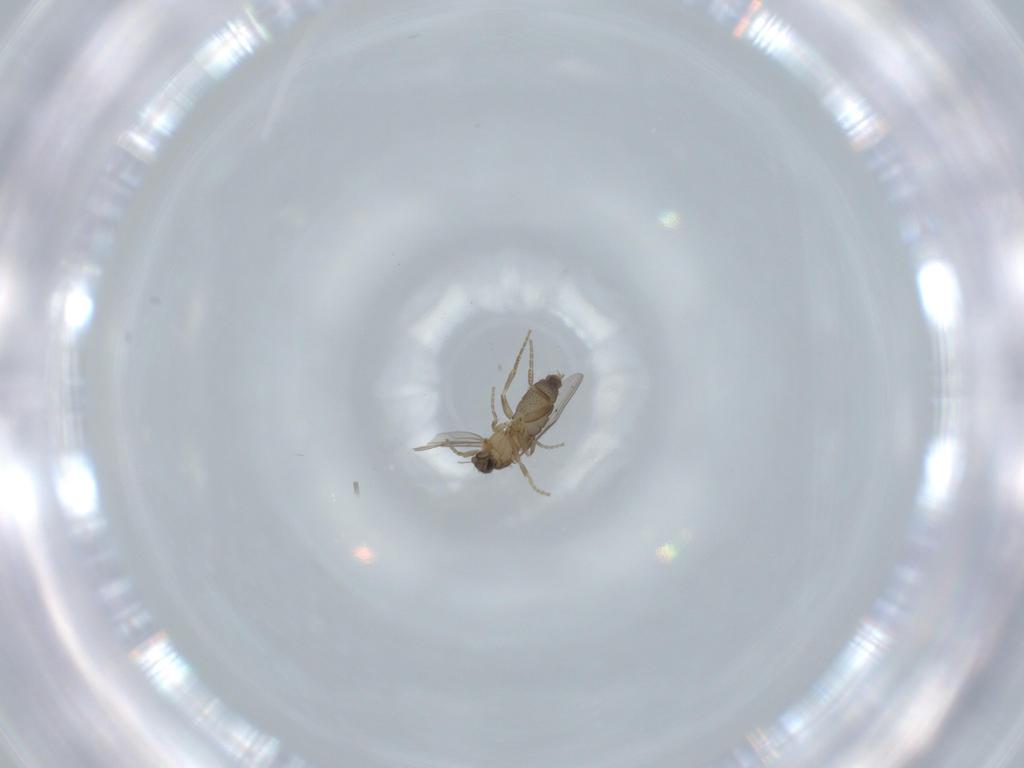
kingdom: Animalia
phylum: Arthropoda
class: Insecta
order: Diptera
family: Phoridae
